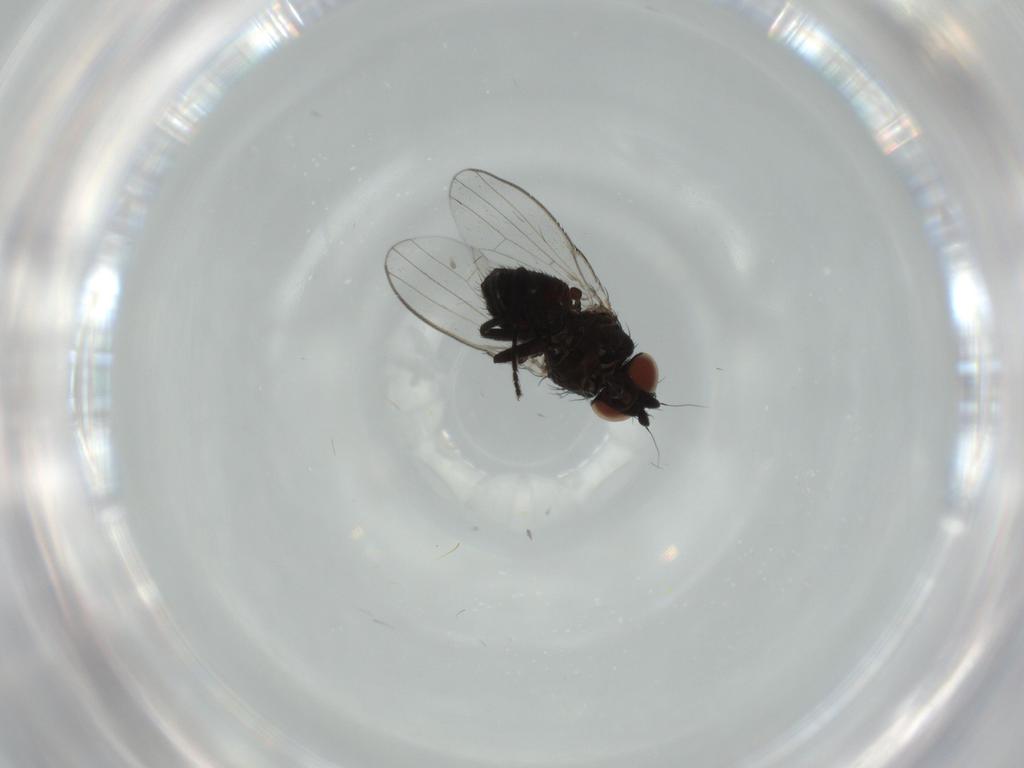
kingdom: Animalia
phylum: Arthropoda
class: Insecta
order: Diptera
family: Milichiidae
